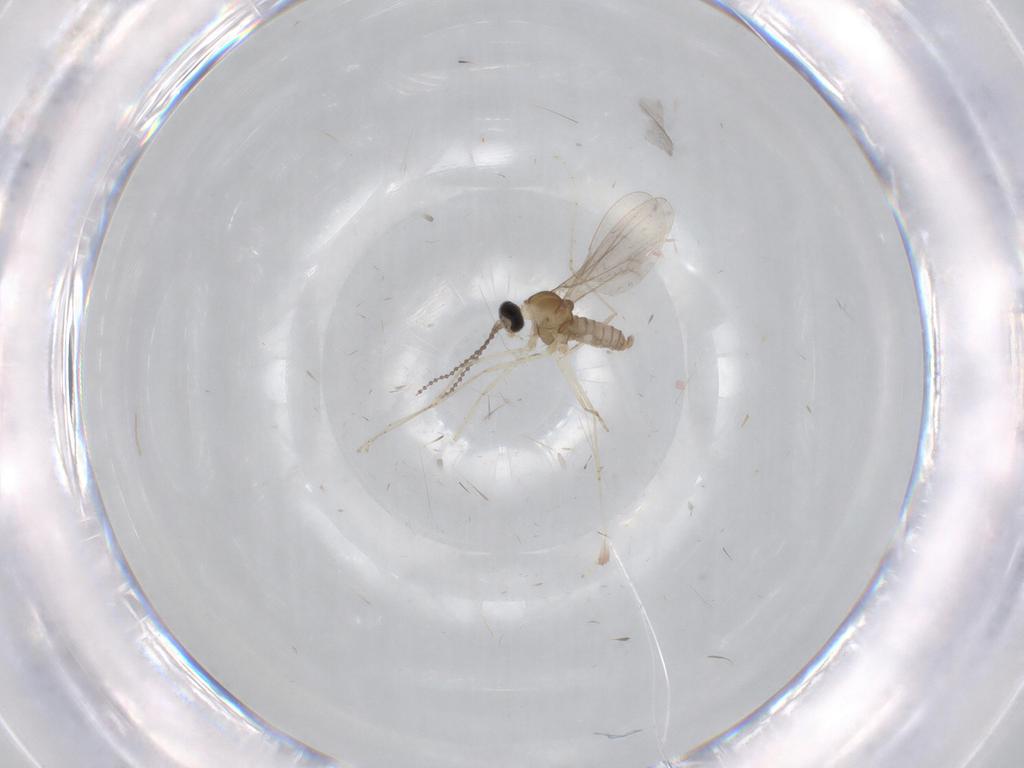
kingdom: Animalia
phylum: Arthropoda
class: Insecta
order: Diptera
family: Cecidomyiidae
